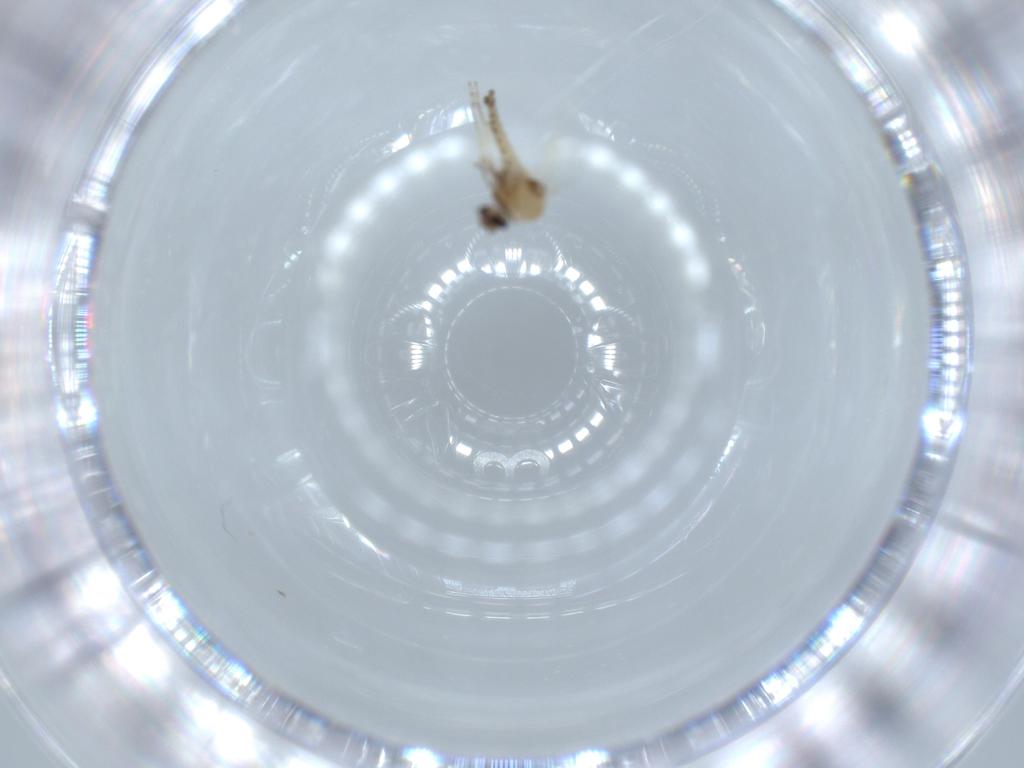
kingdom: Animalia
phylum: Arthropoda
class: Insecta
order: Diptera
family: Ceratopogonidae
